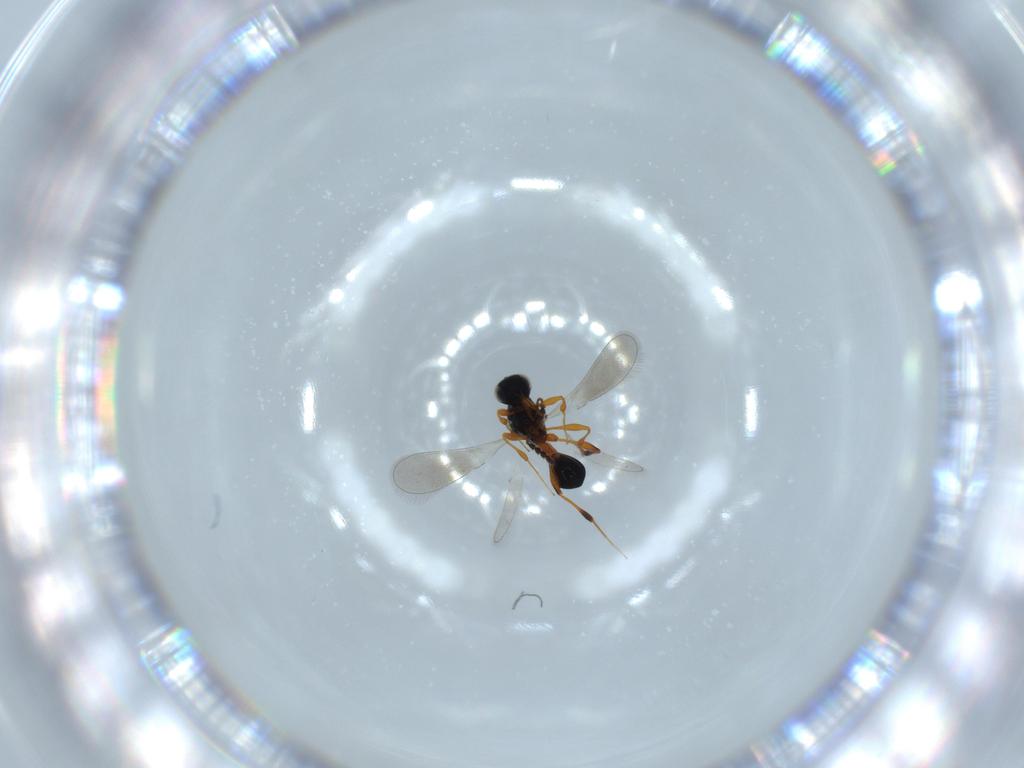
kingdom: Animalia
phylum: Arthropoda
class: Insecta
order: Hymenoptera
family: Platygastridae
